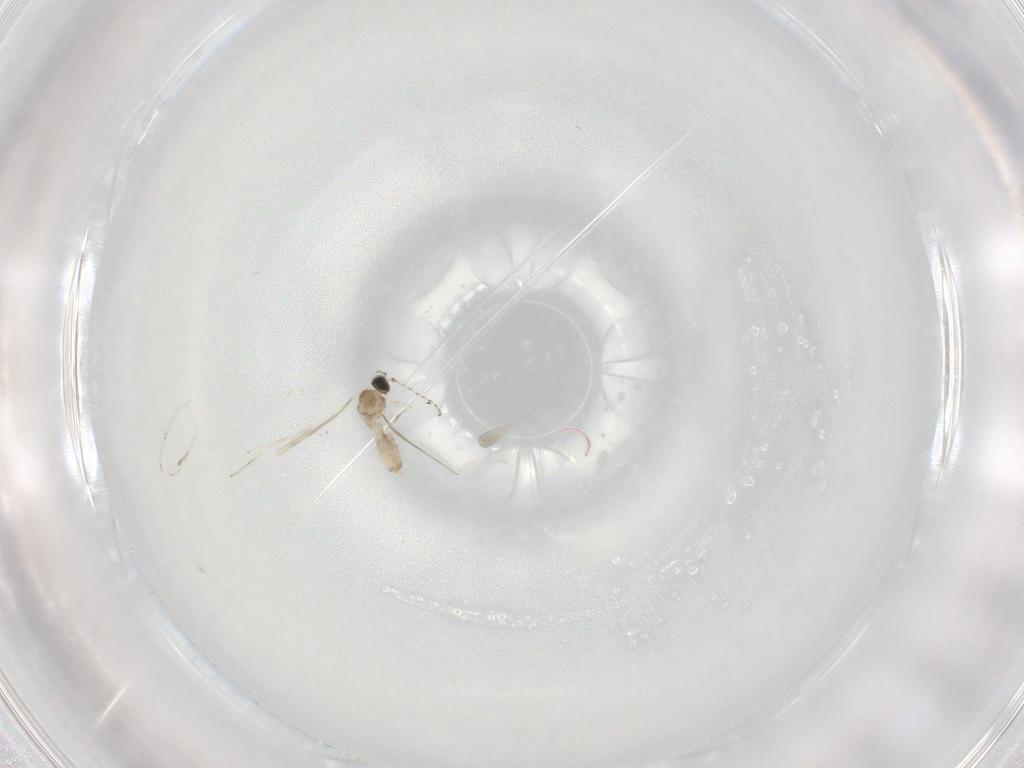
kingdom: Animalia
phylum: Arthropoda
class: Insecta
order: Diptera
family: Cecidomyiidae
